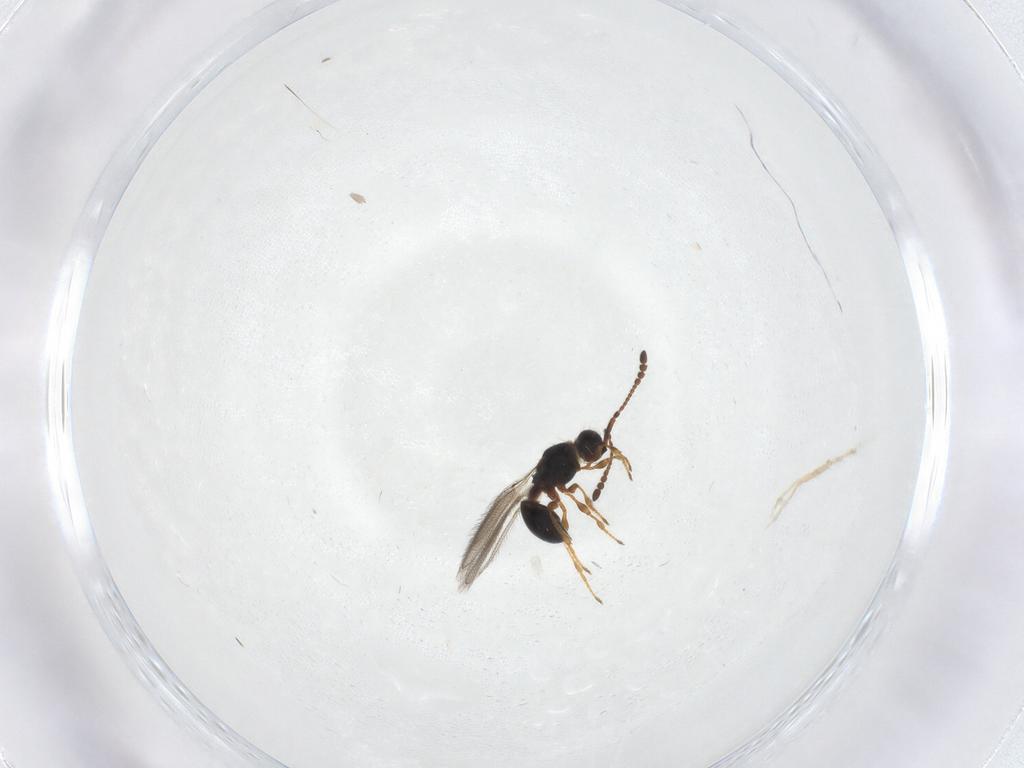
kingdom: Animalia
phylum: Arthropoda
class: Insecta
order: Hymenoptera
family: Diapriidae
